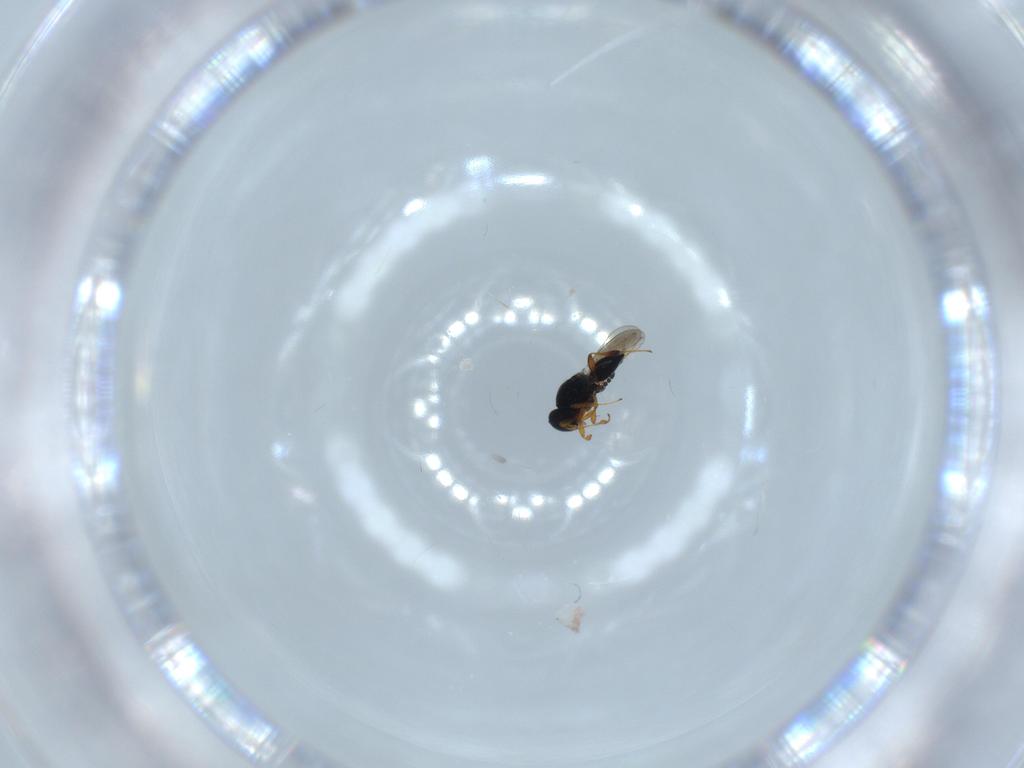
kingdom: Animalia
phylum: Arthropoda
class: Insecta
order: Hymenoptera
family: Platygastridae
